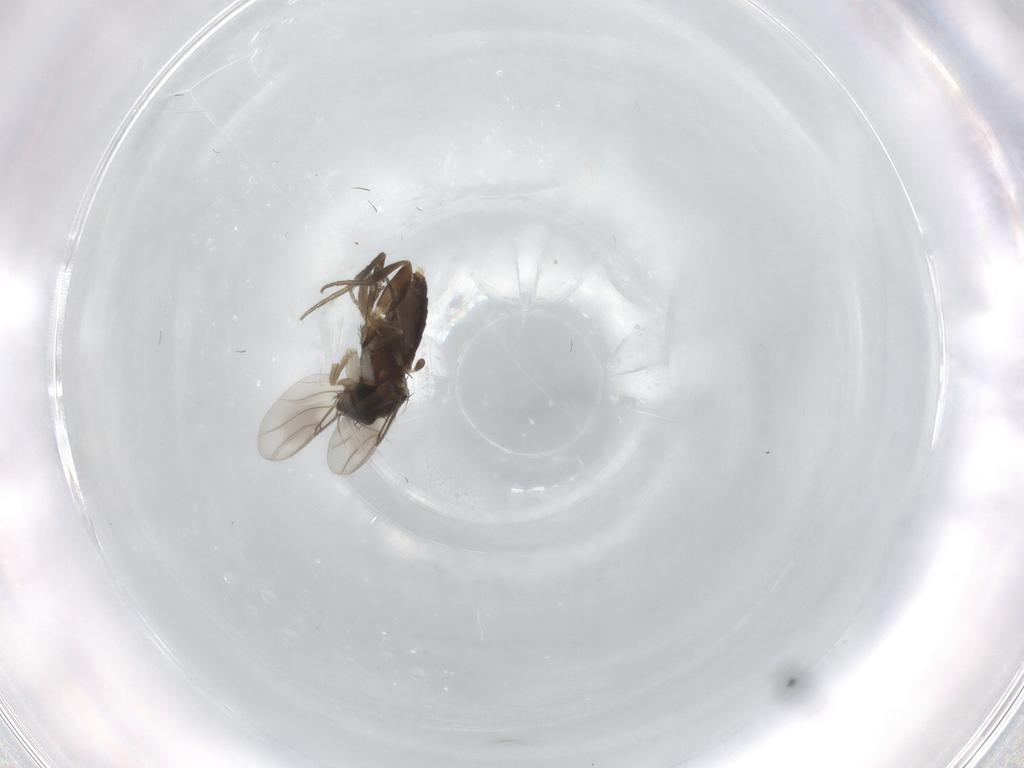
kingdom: Animalia
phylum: Arthropoda
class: Insecta
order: Diptera
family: Phoridae
